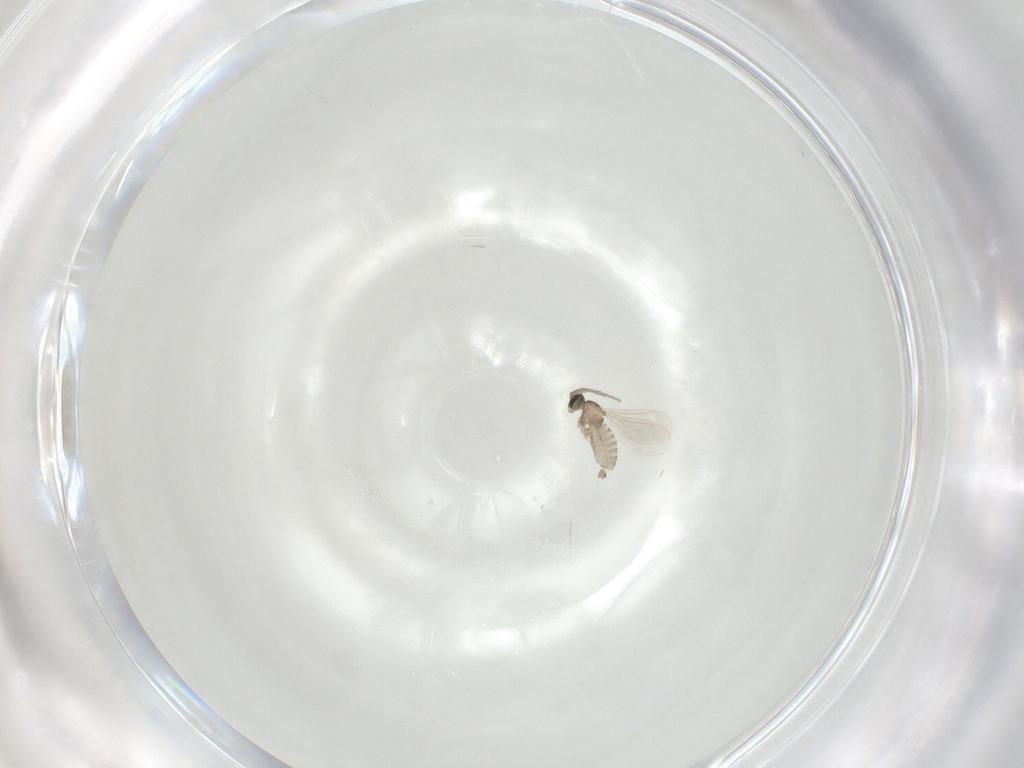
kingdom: Animalia
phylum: Arthropoda
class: Insecta
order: Diptera
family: Cecidomyiidae
